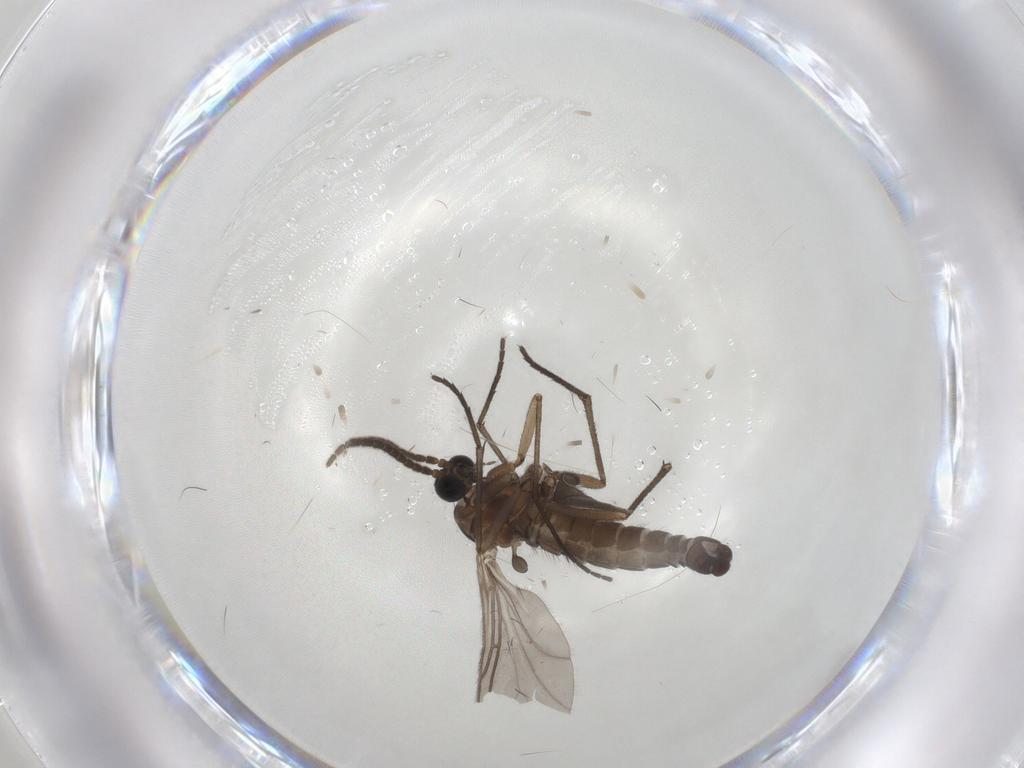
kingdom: Animalia
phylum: Arthropoda
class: Insecta
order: Diptera
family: Sciaridae
